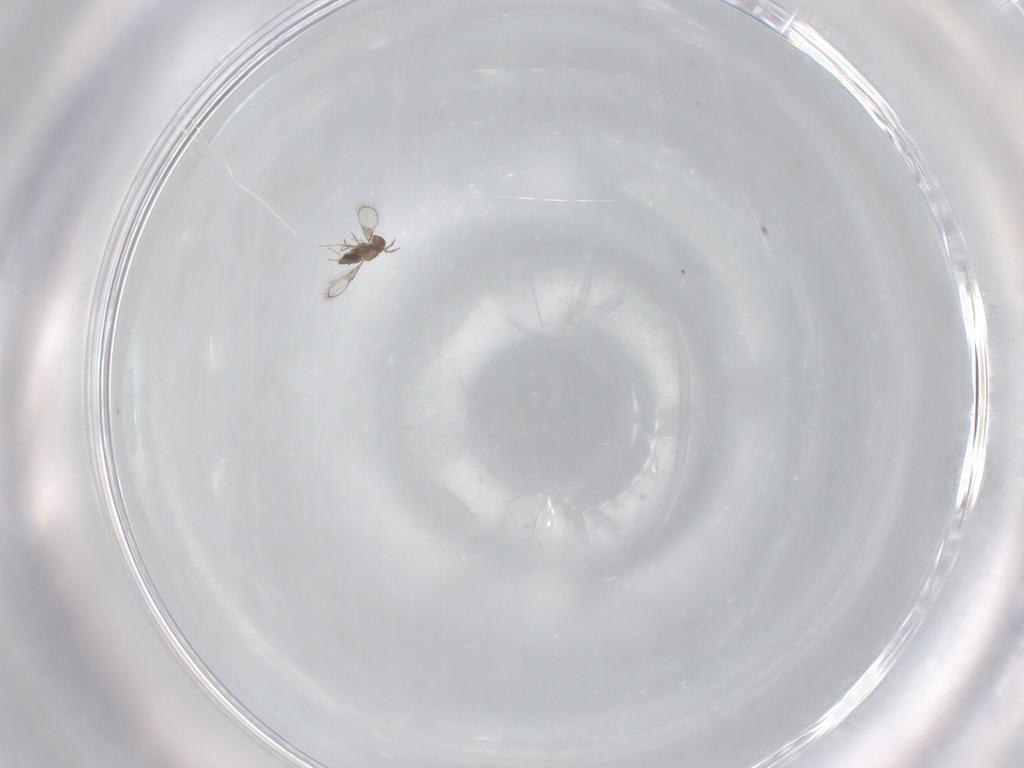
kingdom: Animalia
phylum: Arthropoda
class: Insecta
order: Hymenoptera
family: Trichogrammatidae
